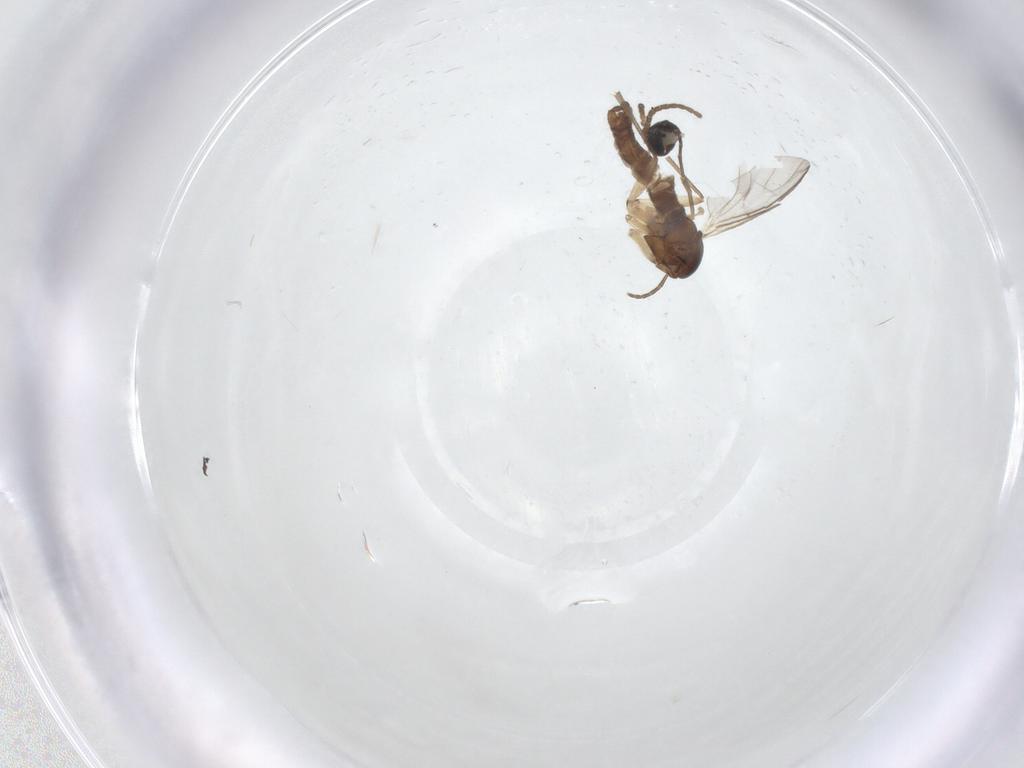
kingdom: Animalia
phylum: Arthropoda
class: Insecta
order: Diptera
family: Sciaridae
